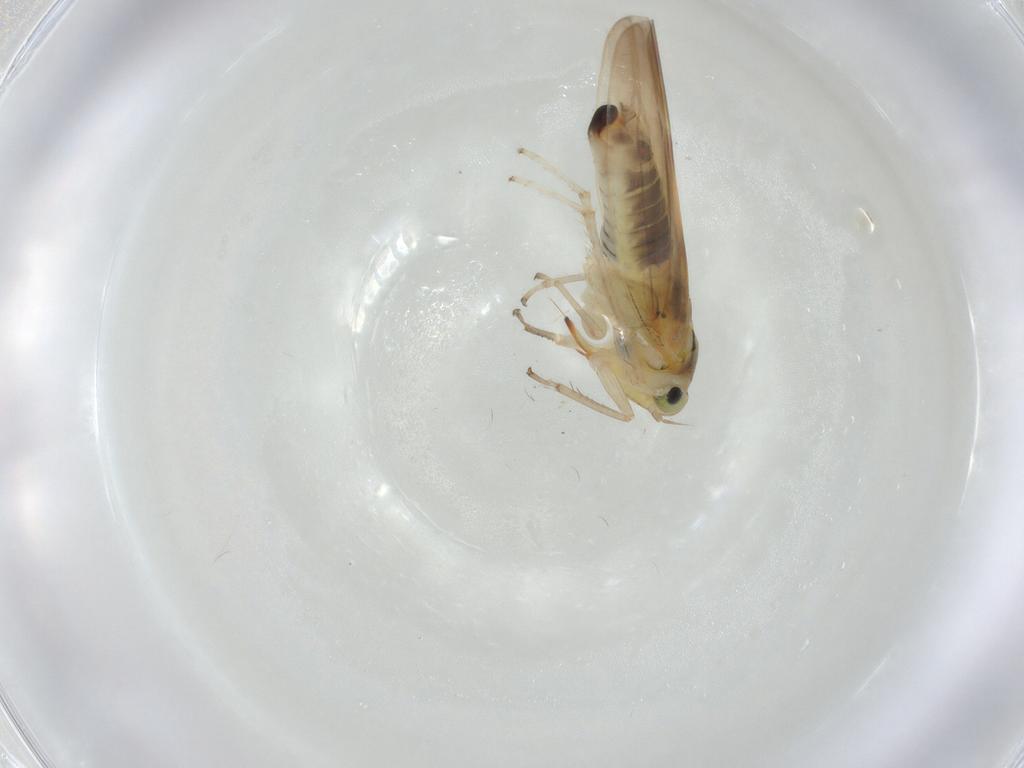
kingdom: Animalia
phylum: Arthropoda
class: Insecta
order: Hemiptera
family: Cicadellidae
